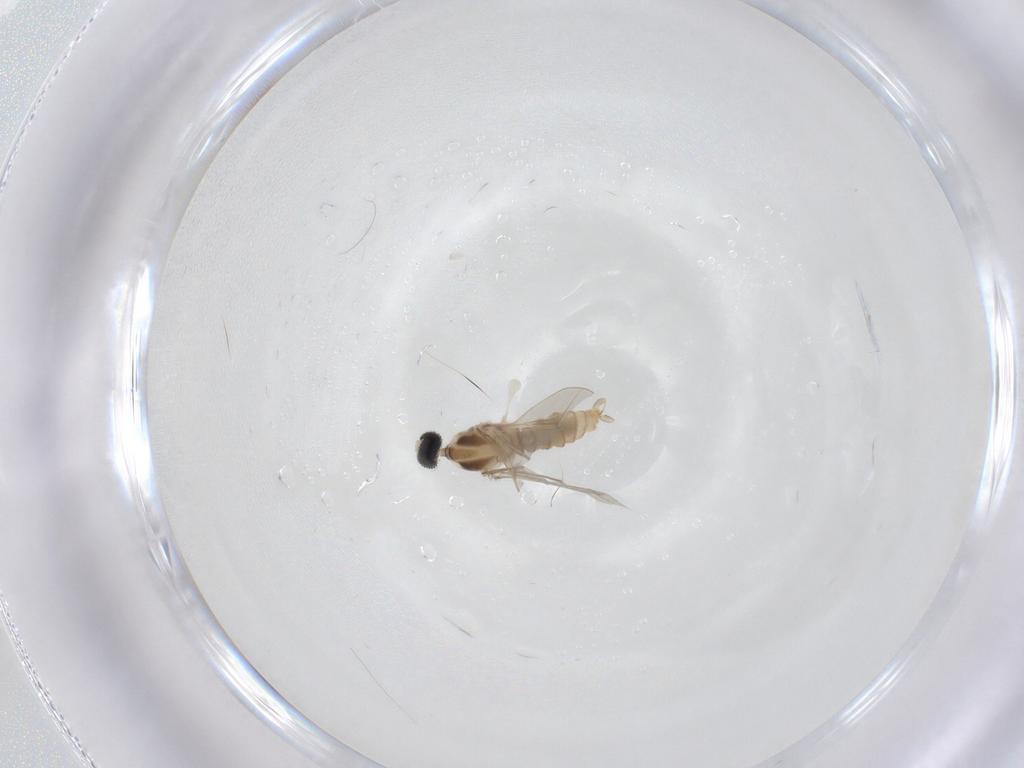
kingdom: Animalia
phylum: Arthropoda
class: Insecta
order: Diptera
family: Cecidomyiidae
